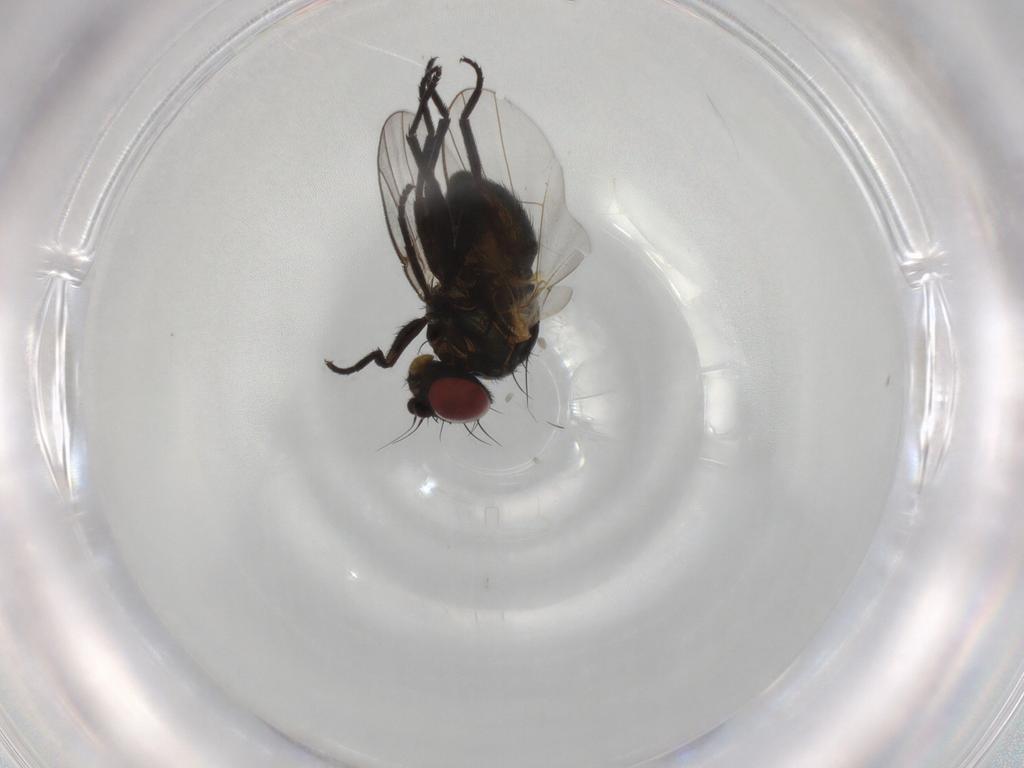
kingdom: Animalia
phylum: Arthropoda
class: Insecta
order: Diptera
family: Agromyzidae
